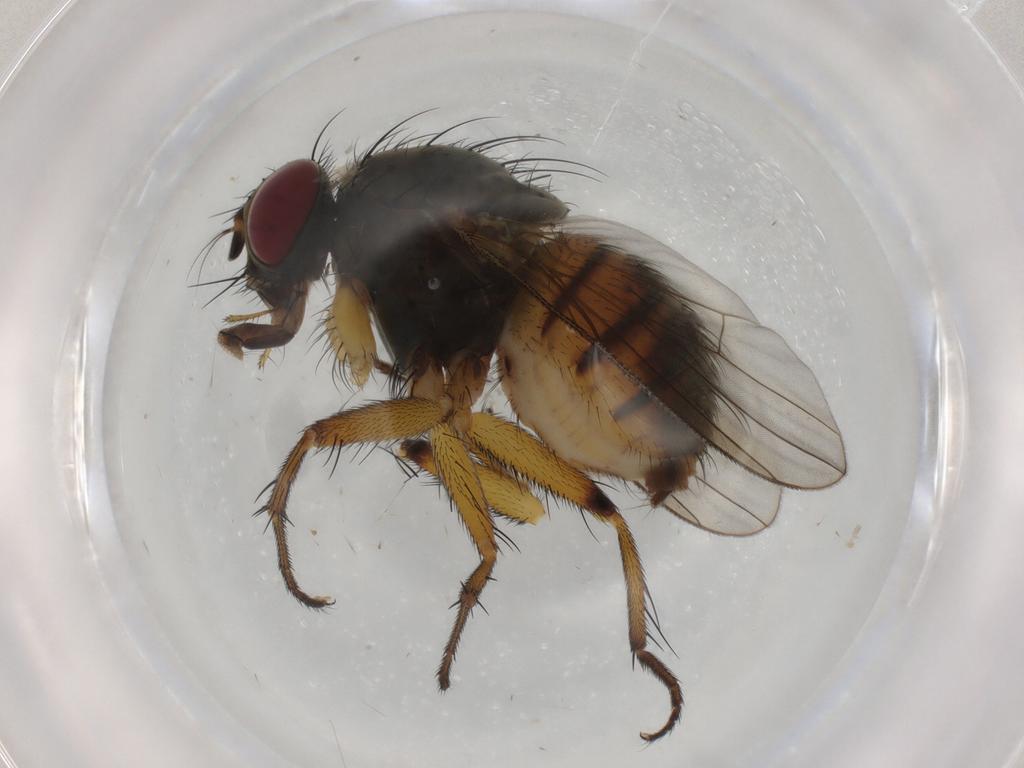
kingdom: Animalia
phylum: Arthropoda
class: Insecta
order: Diptera
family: Muscidae
